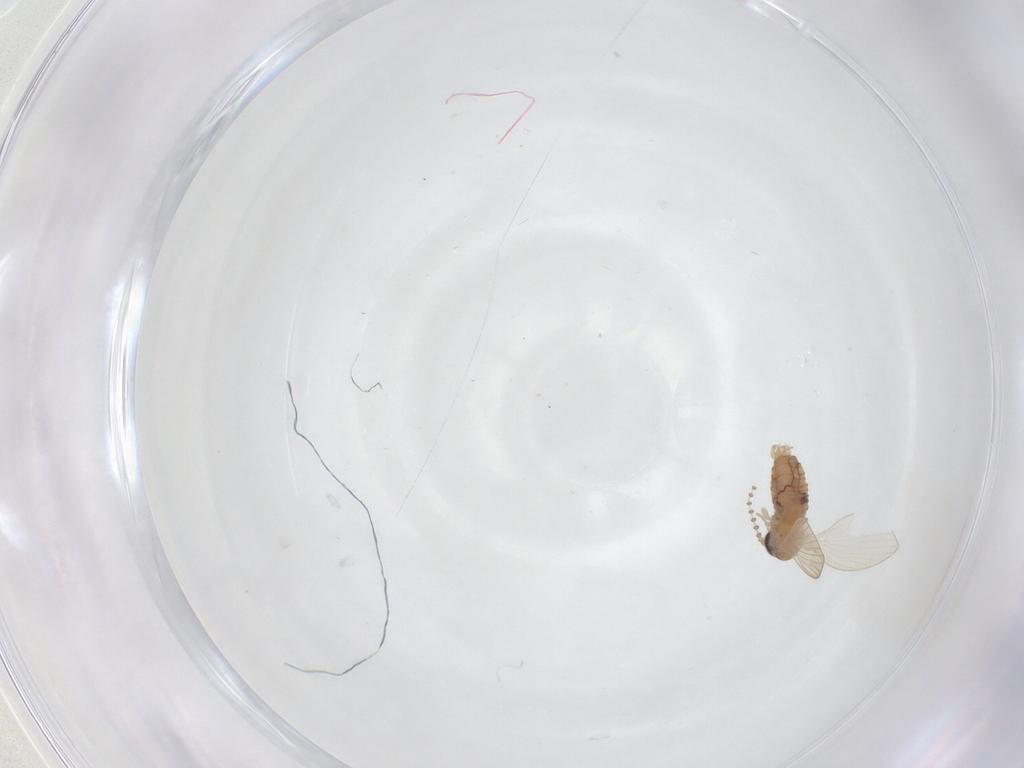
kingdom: Animalia
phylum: Arthropoda
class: Insecta
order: Diptera
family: Psychodidae
